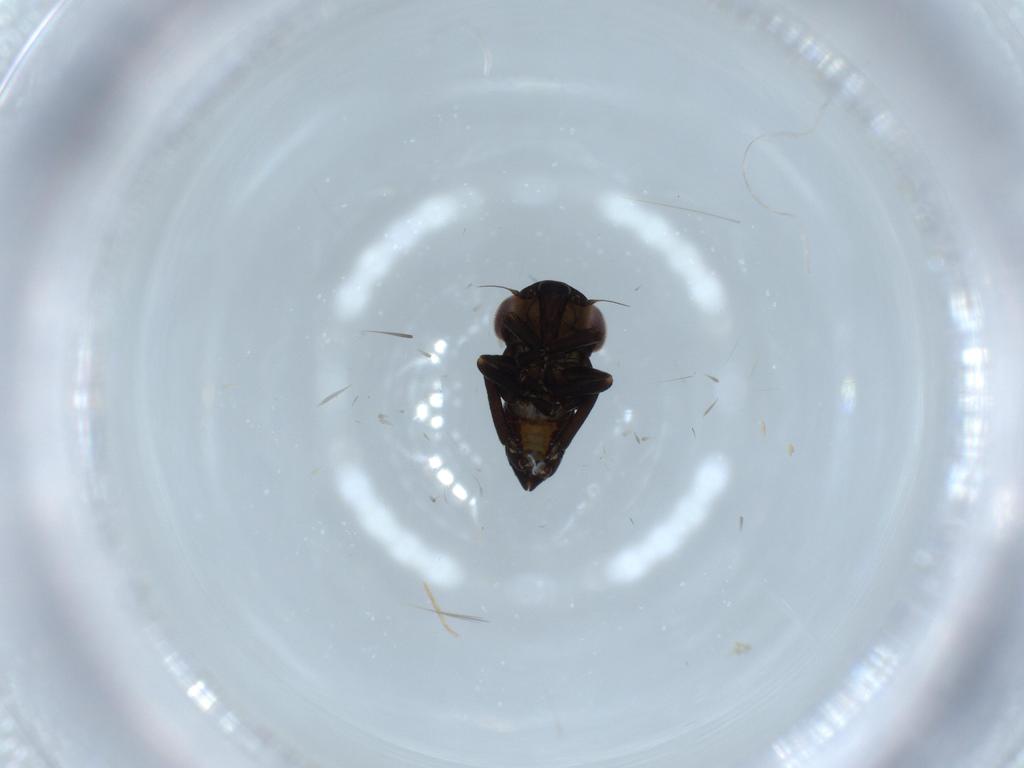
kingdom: Animalia
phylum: Arthropoda
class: Insecta
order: Hemiptera
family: Cicadellidae
